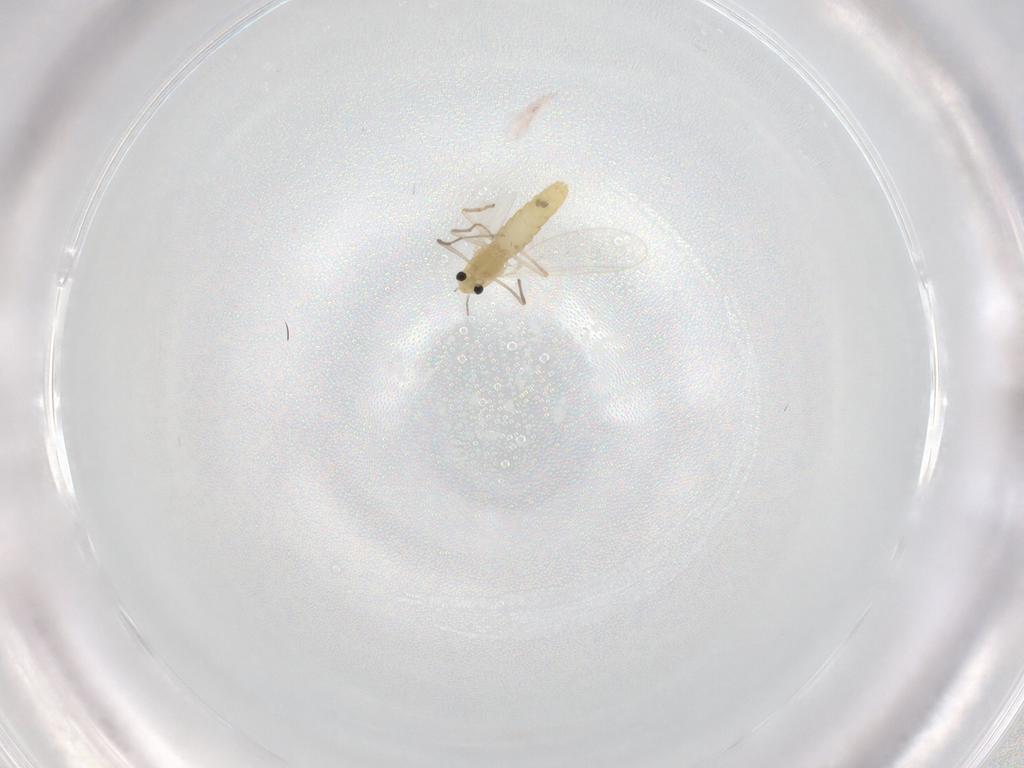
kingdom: Animalia
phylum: Arthropoda
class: Insecta
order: Diptera
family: Chironomidae
